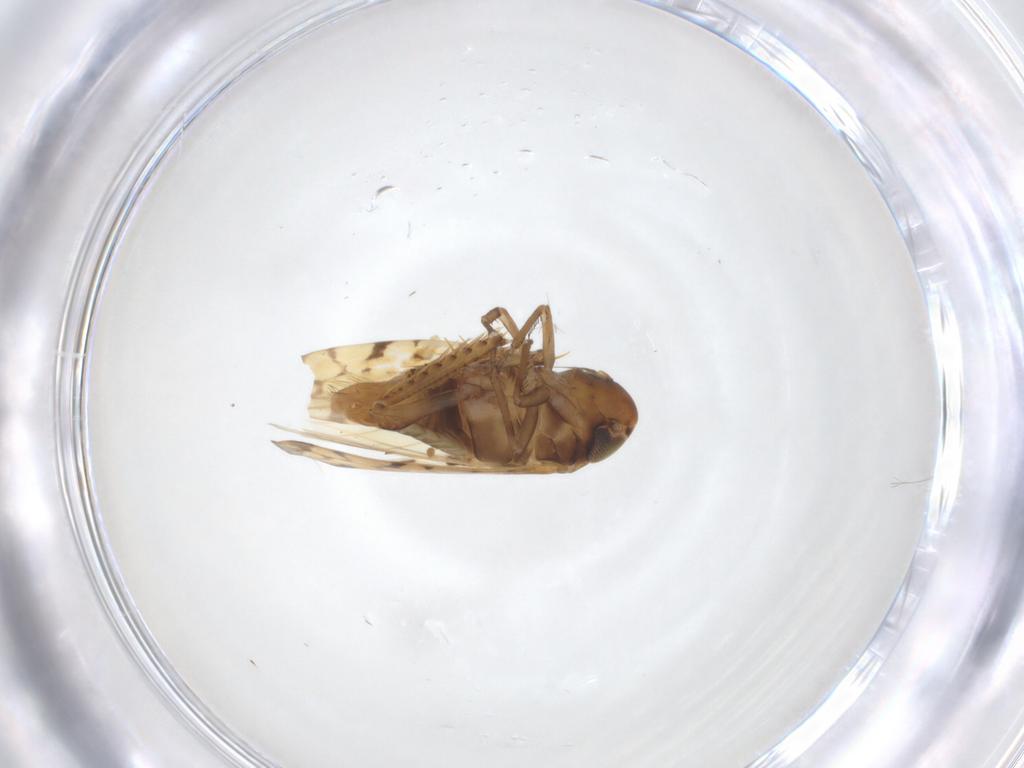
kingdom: Animalia
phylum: Arthropoda
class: Insecta
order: Hemiptera
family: Cicadellidae
